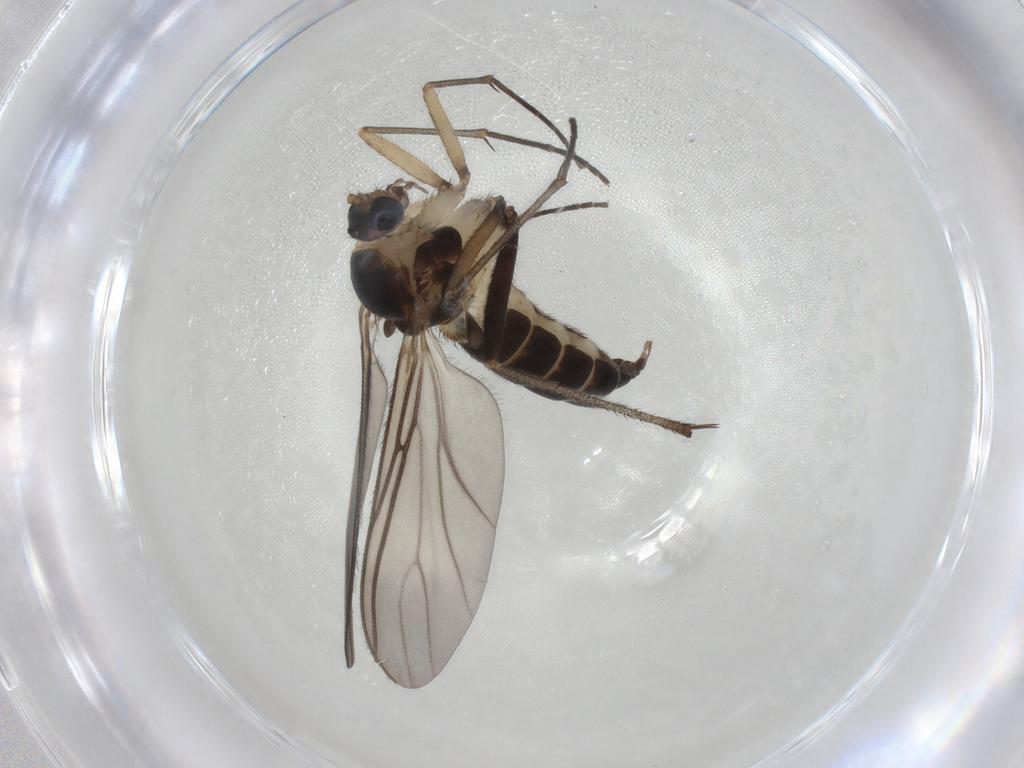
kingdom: Animalia
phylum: Arthropoda
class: Insecta
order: Diptera
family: Sciaridae
